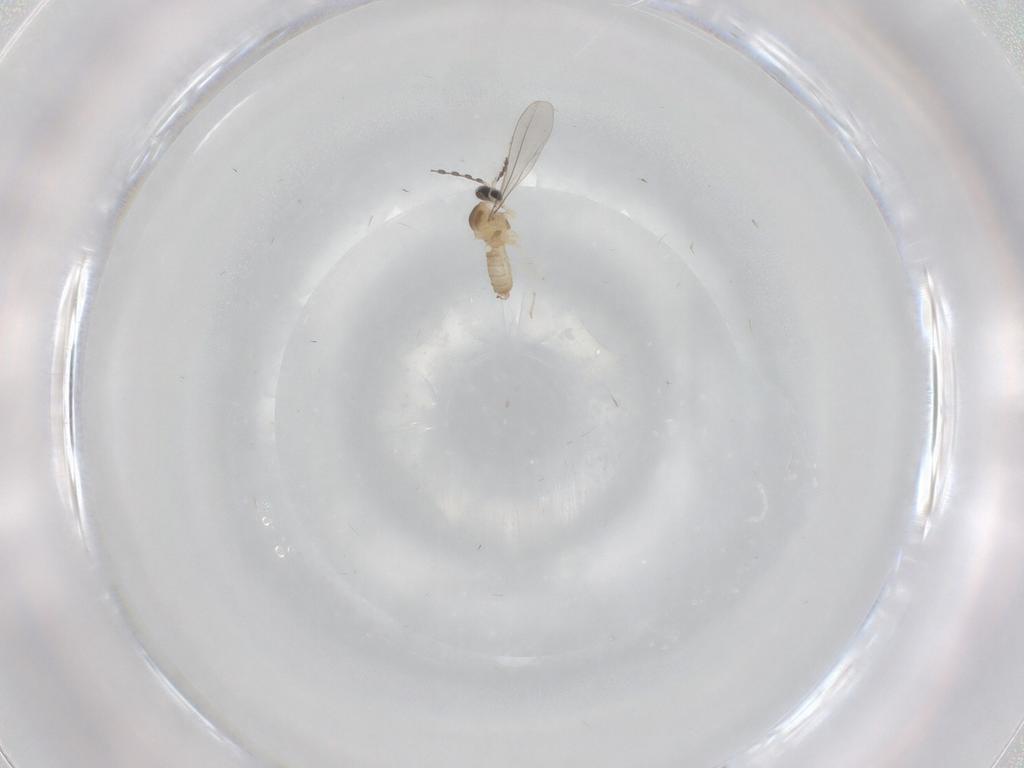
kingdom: Animalia
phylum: Arthropoda
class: Insecta
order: Diptera
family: Cecidomyiidae
